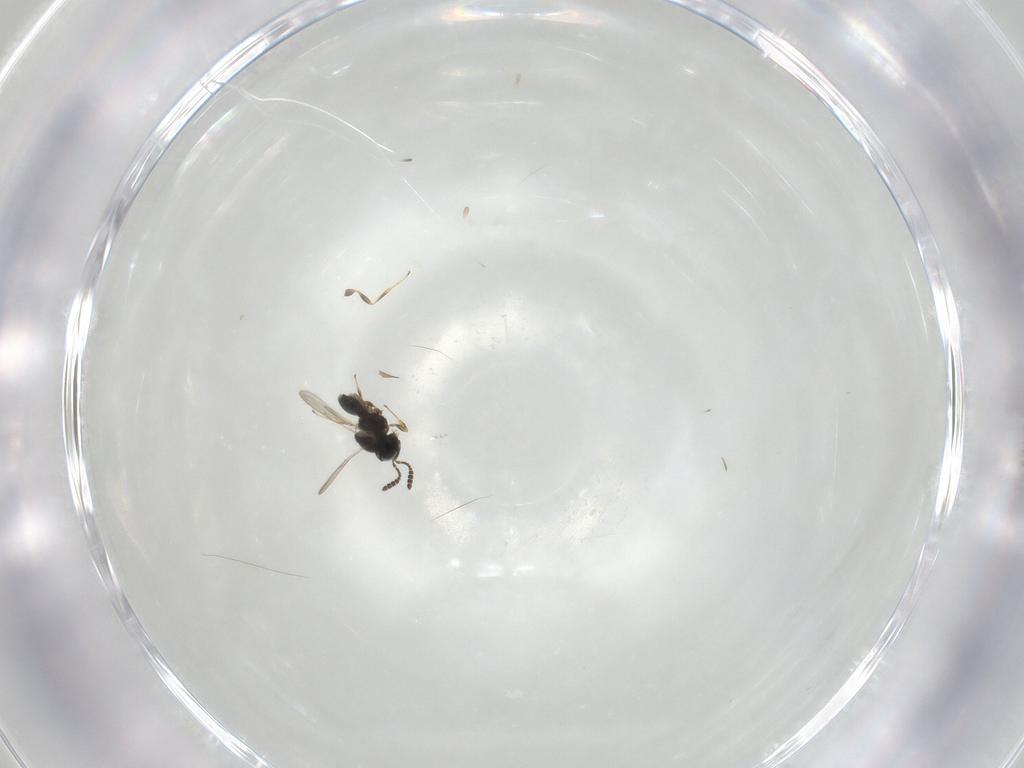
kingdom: Animalia
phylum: Arthropoda
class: Insecta
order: Hymenoptera
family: Scelionidae
